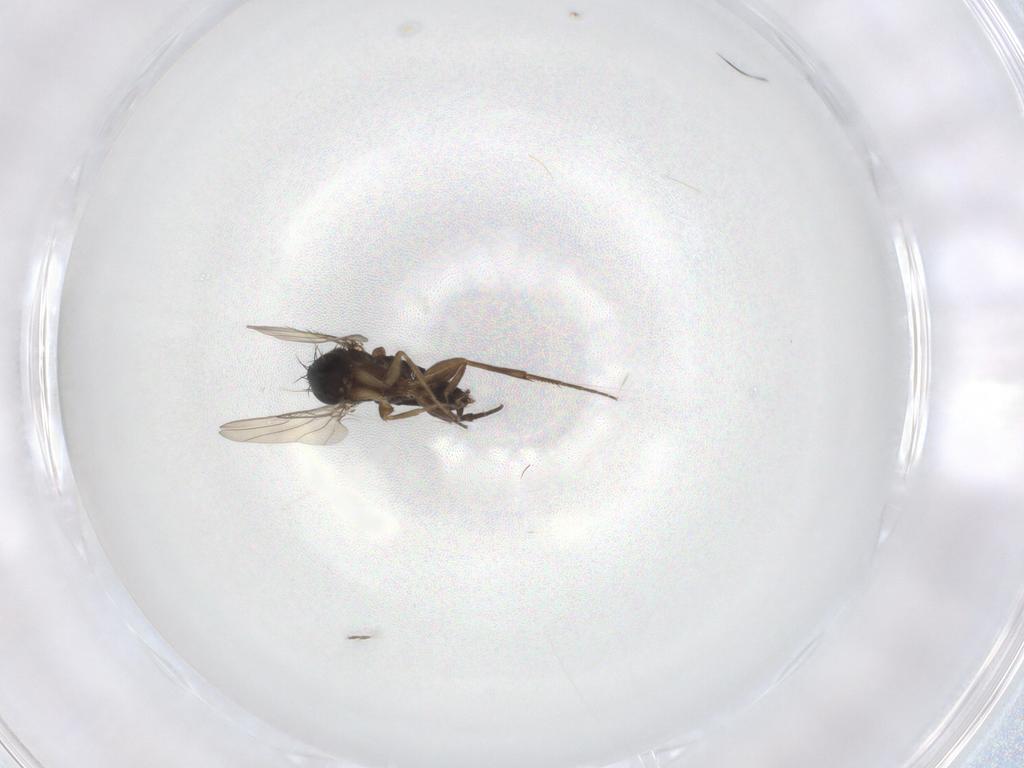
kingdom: Animalia
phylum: Arthropoda
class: Insecta
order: Diptera
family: Phoridae
